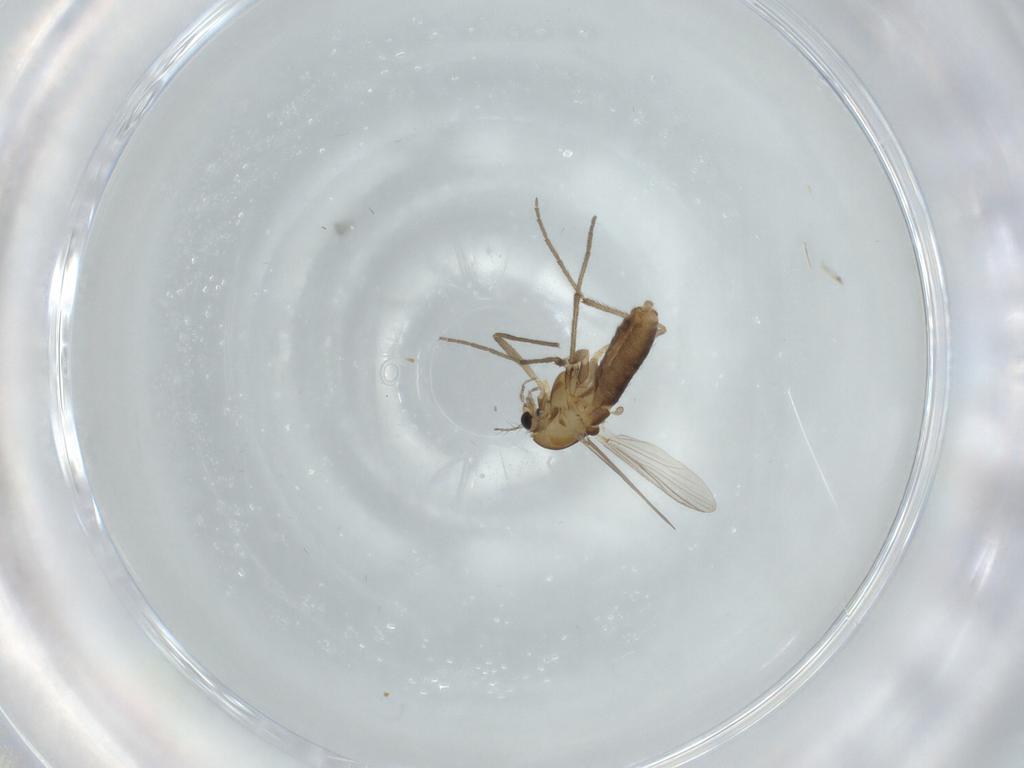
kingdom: Animalia
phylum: Arthropoda
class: Insecta
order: Diptera
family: Chironomidae
